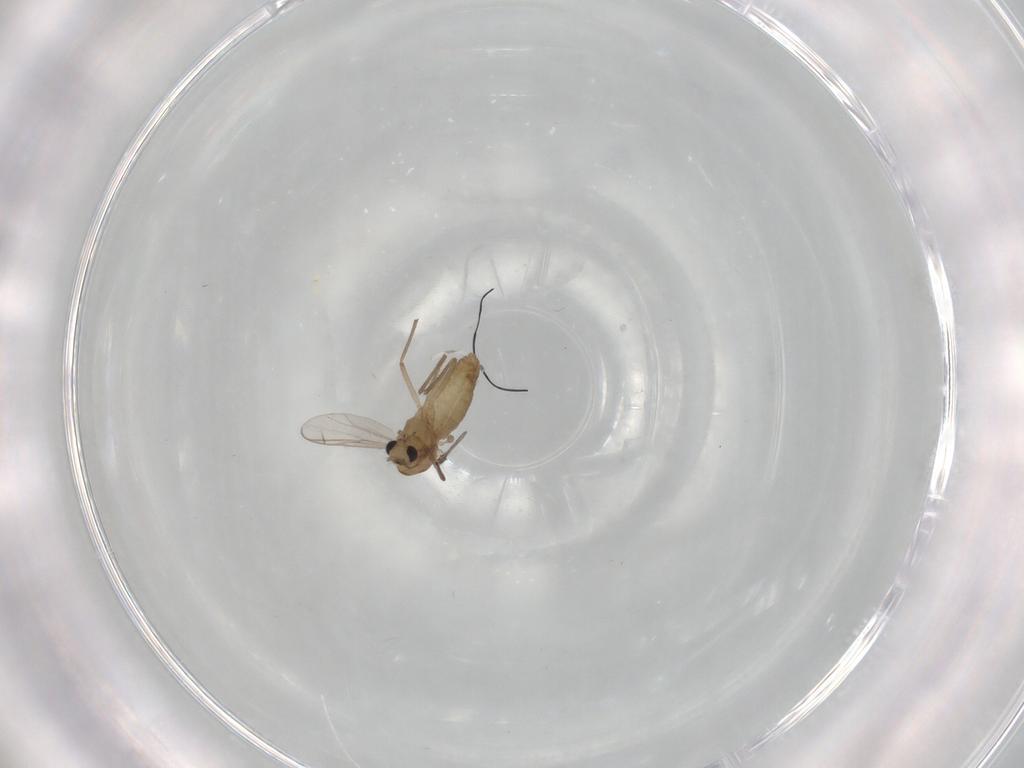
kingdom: Animalia
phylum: Arthropoda
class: Insecta
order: Diptera
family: Chironomidae
